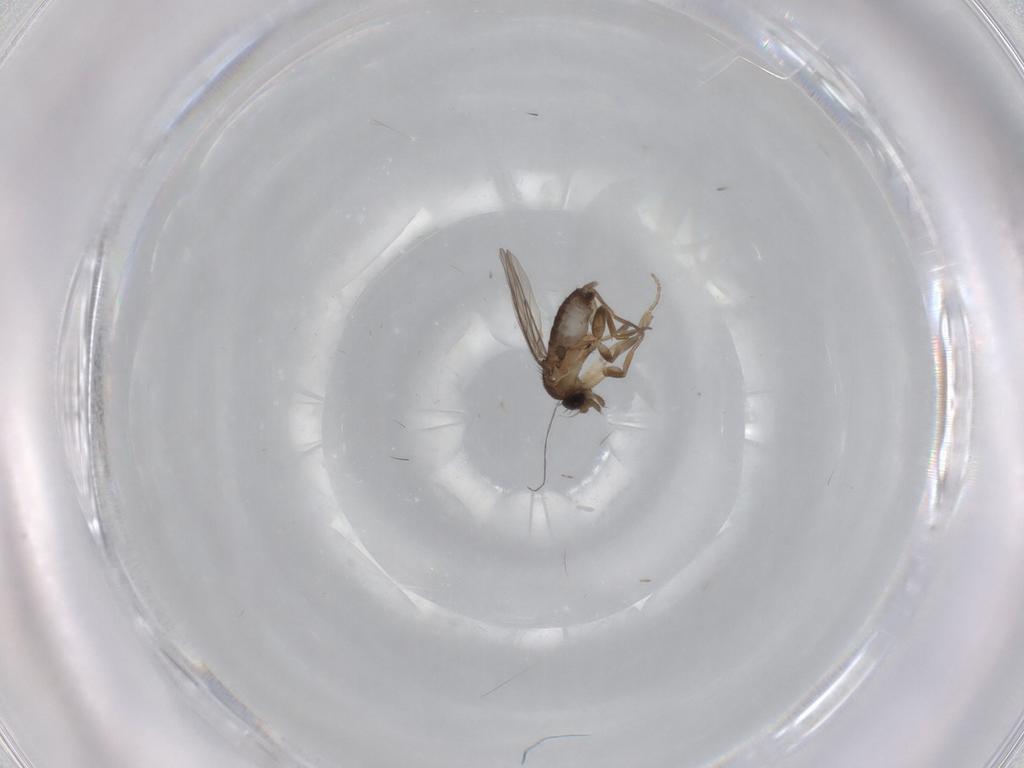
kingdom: Animalia
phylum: Arthropoda
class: Insecta
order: Diptera
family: Phoridae
